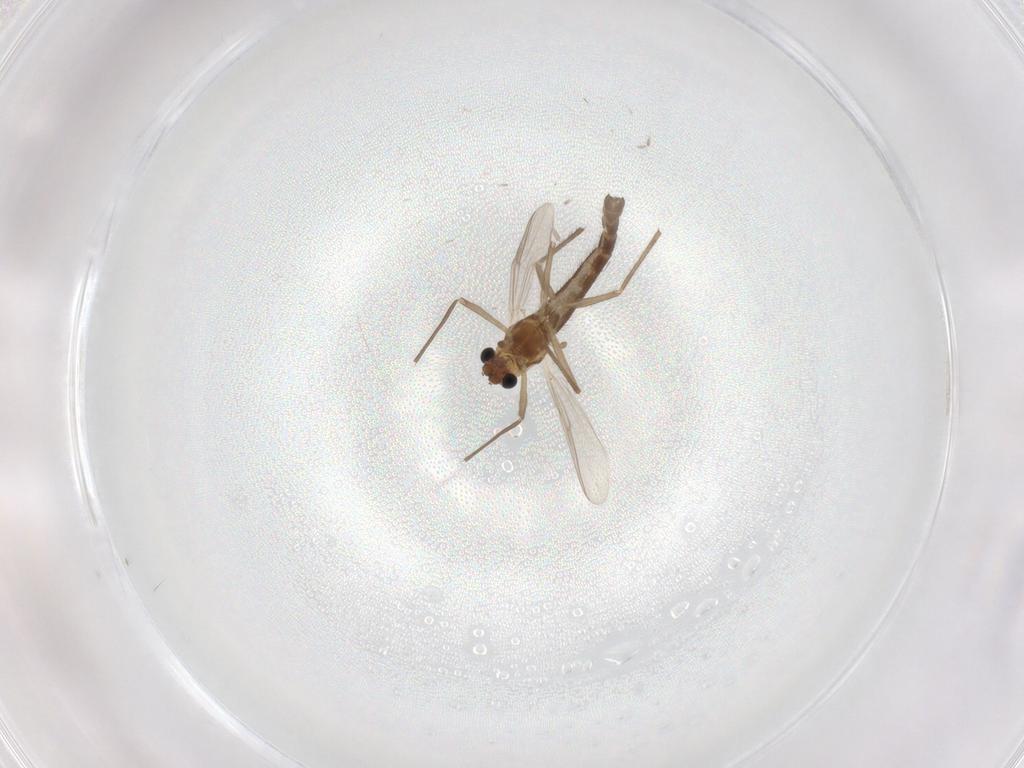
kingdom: Animalia
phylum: Arthropoda
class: Insecta
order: Diptera
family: Chironomidae
